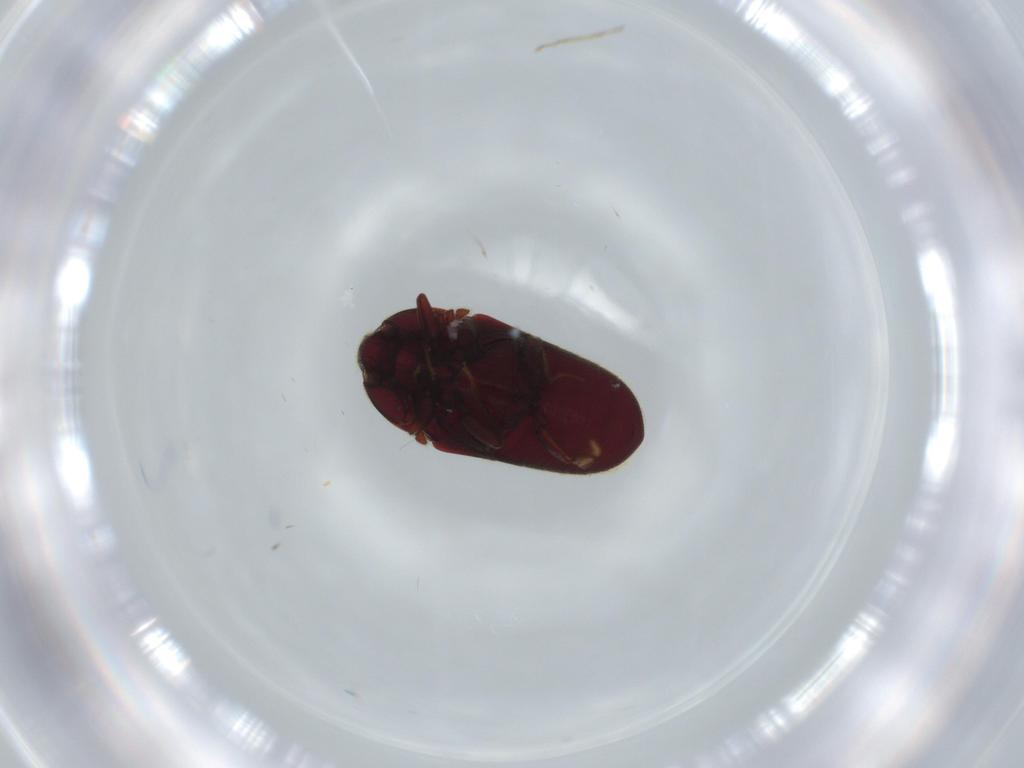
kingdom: Animalia
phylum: Arthropoda
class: Insecta
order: Coleoptera
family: Throscidae
